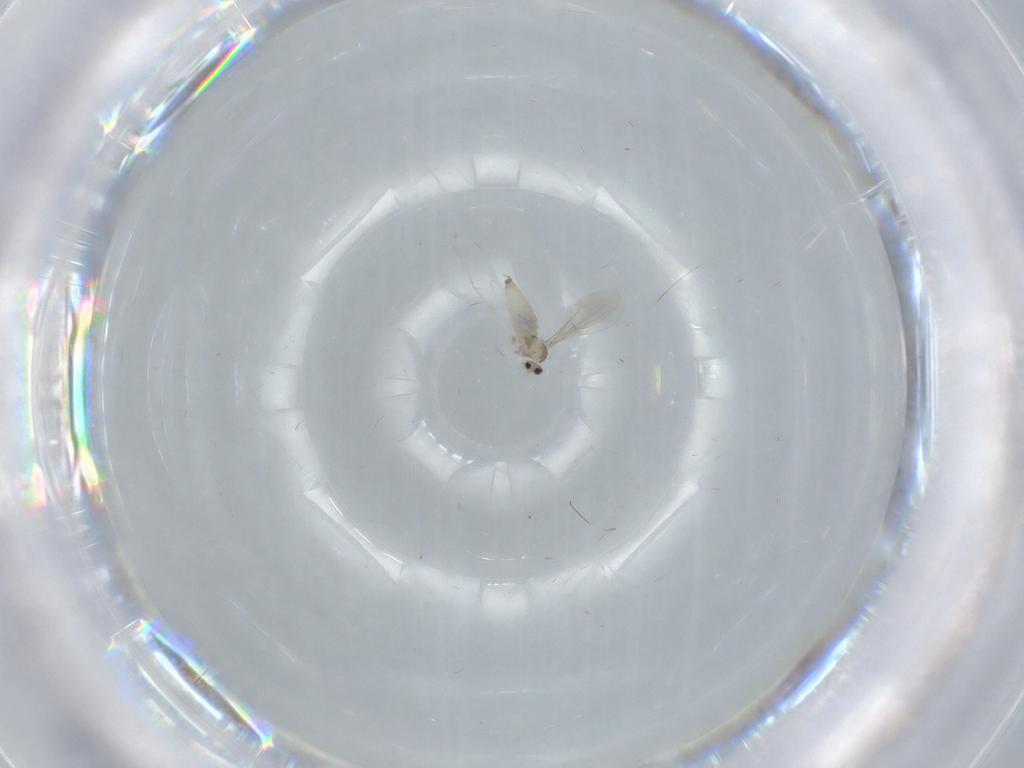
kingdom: Animalia
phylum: Arthropoda
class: Insecta
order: Diptera
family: Cecidomyiidae
